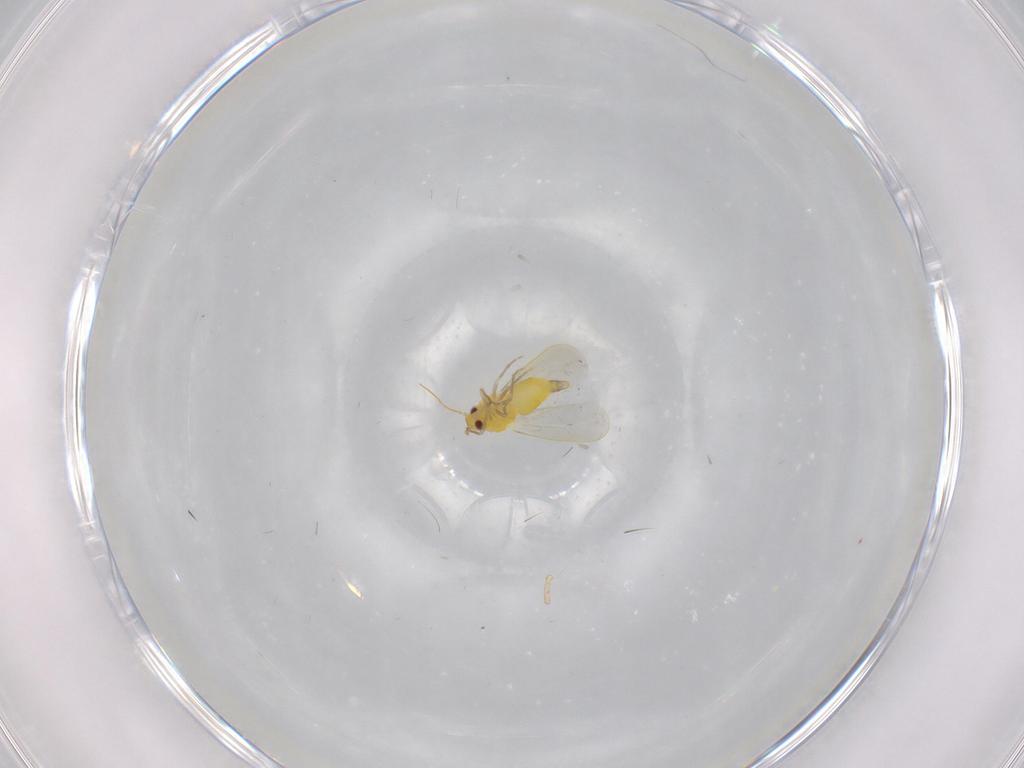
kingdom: Animalia
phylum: Arthropoda
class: Insecta
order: Hemiptera
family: Aleyrodidae
